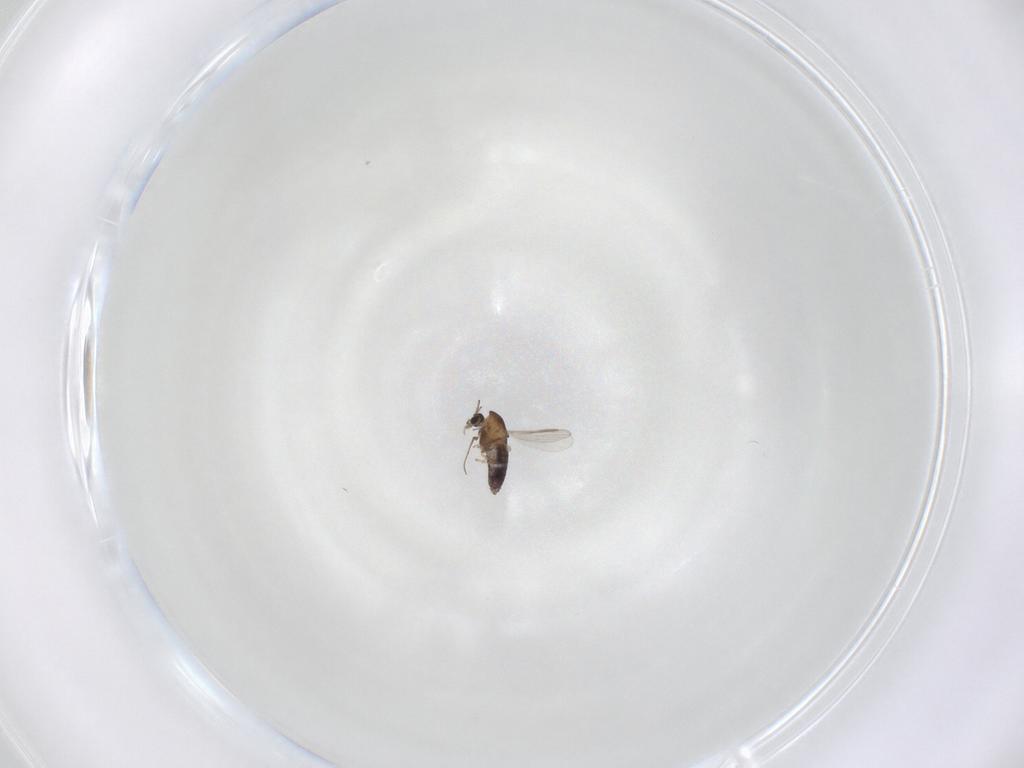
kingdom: Animalia
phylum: Arthropoda
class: Insecta
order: Diptera
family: Chironomidae
